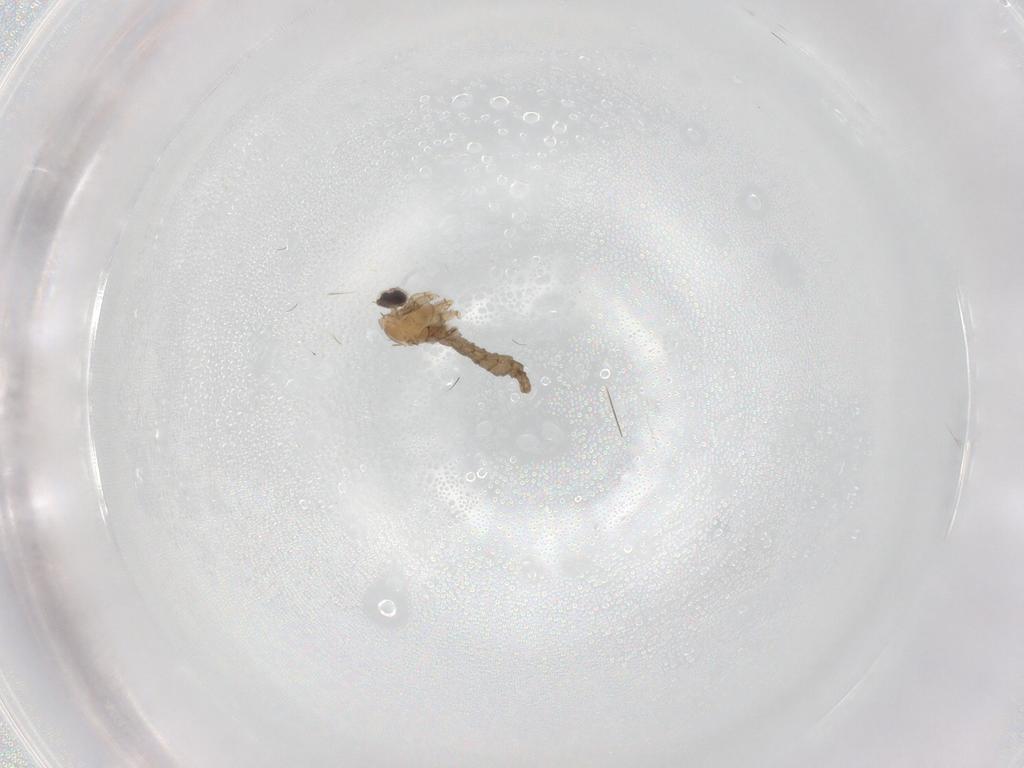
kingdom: Animalia
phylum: Arthropoda
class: Insecta
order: Diptera
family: Cecidomyiidae
